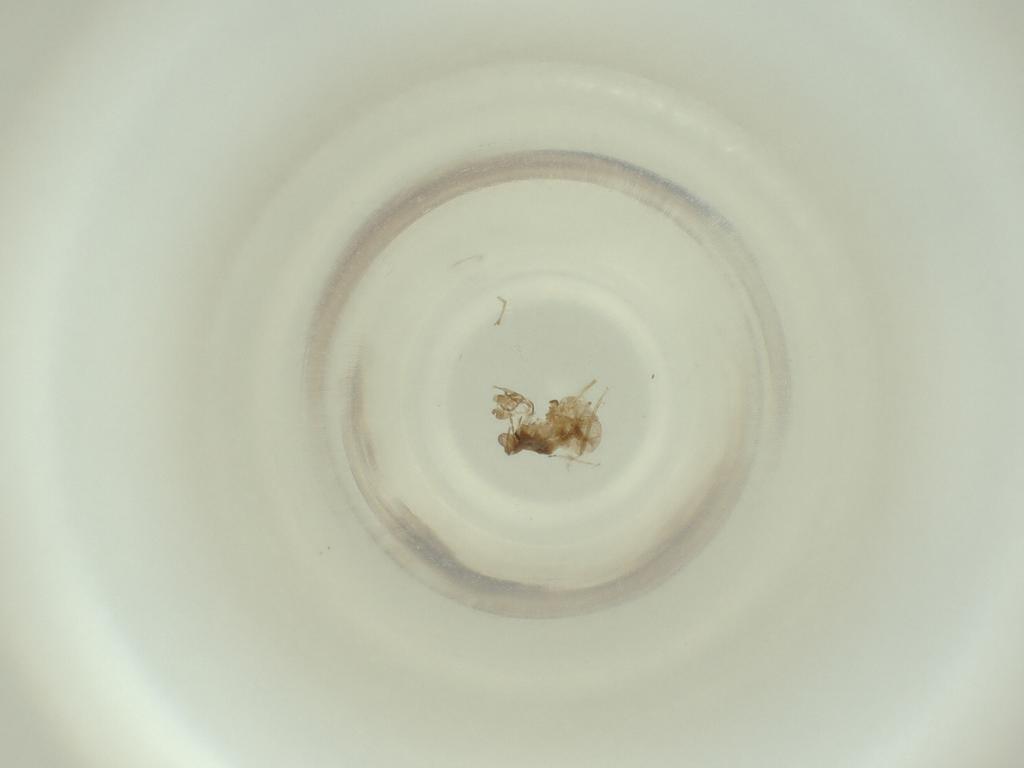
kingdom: Animalia
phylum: Arthropoda
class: Insecta
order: Diptera
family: Cecidomyiidae
